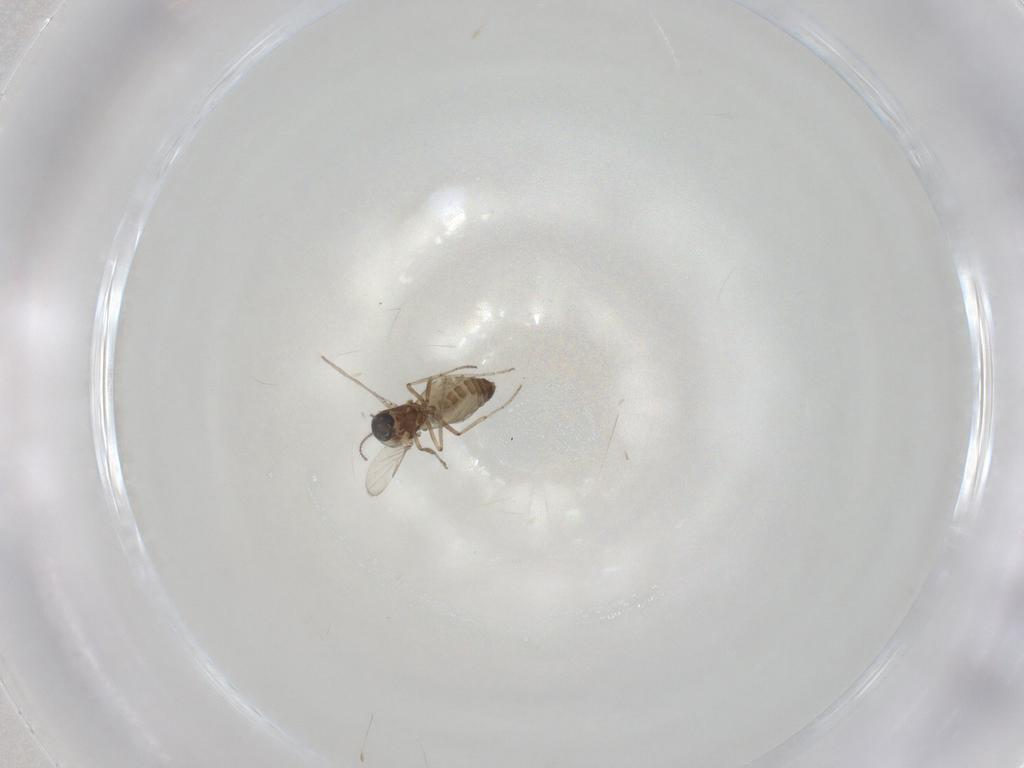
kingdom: Animalia
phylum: Arthropoda
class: Insecta
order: Diptera
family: Ceratopogonidae
